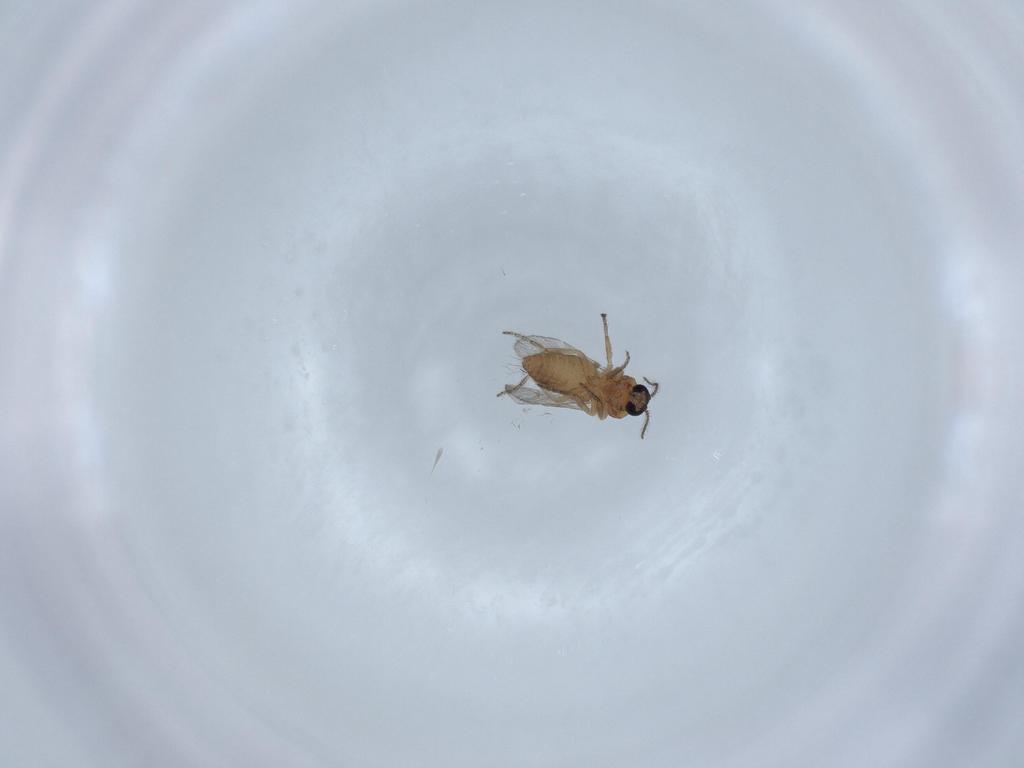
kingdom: Animalia
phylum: Arthropoda
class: Insecta
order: Diptera
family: Ceratopogonidae
